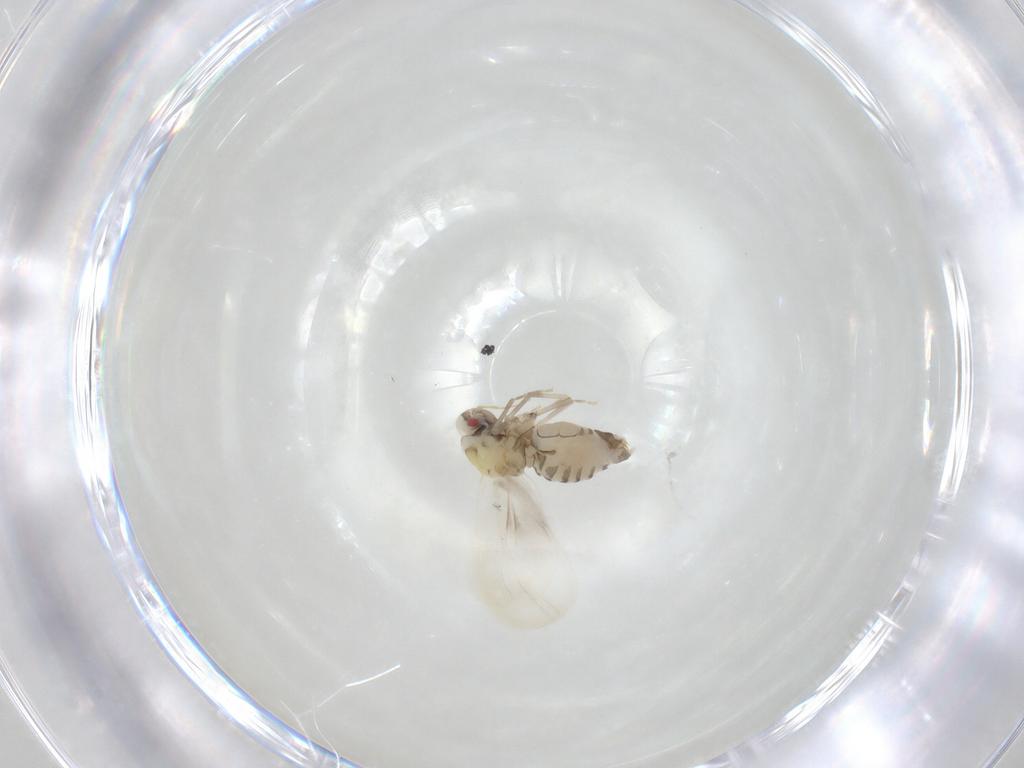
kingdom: Animalia
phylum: Arthropoda
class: Insecta
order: Hemiptera
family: Aleyrodidae
